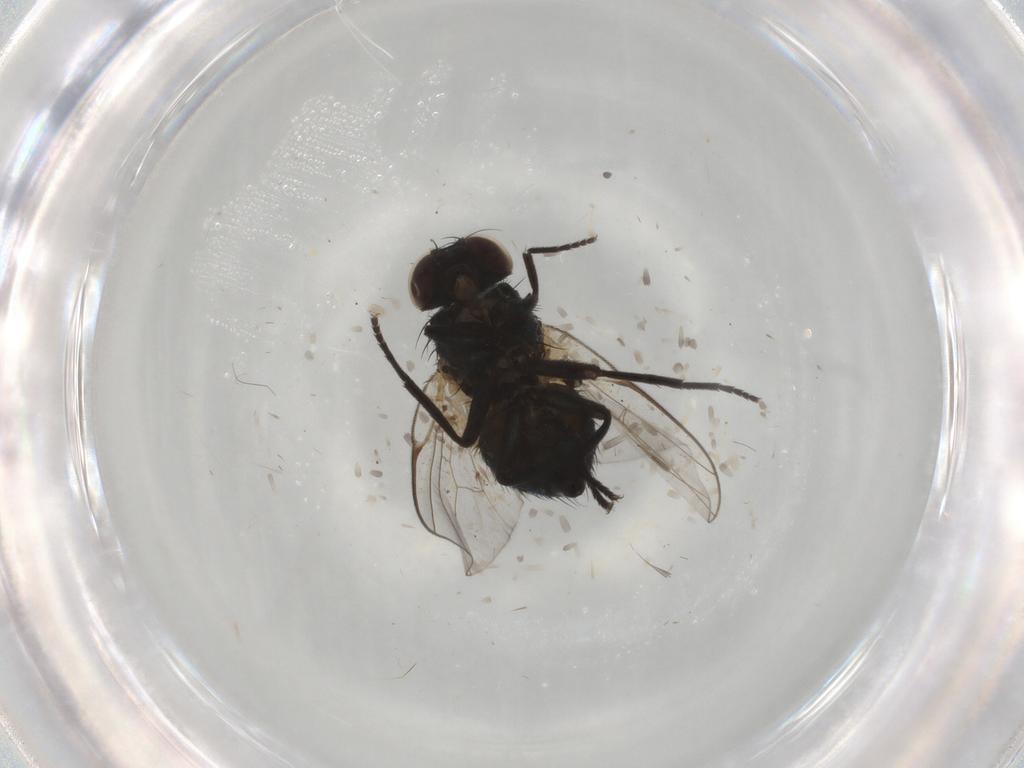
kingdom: Animalia
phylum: Arthropoda
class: Insecta
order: Diptera
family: Agromyzidae
